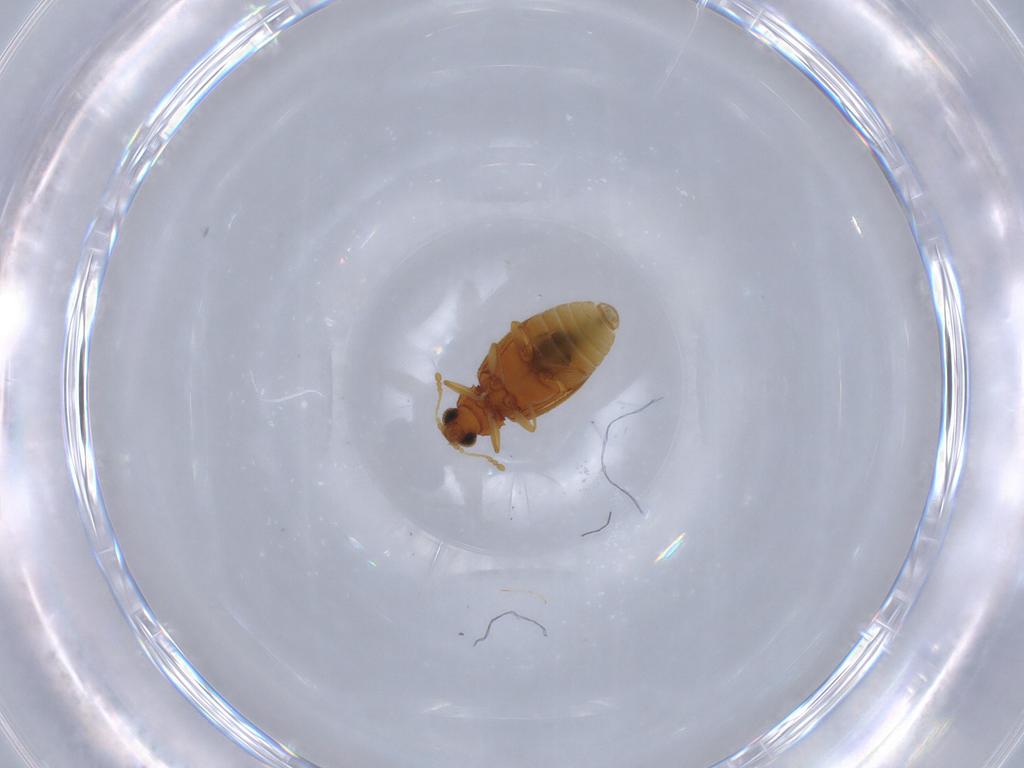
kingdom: Animalia
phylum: Arthropoda
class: Insecta
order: Coleoptera
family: Latridiidae
